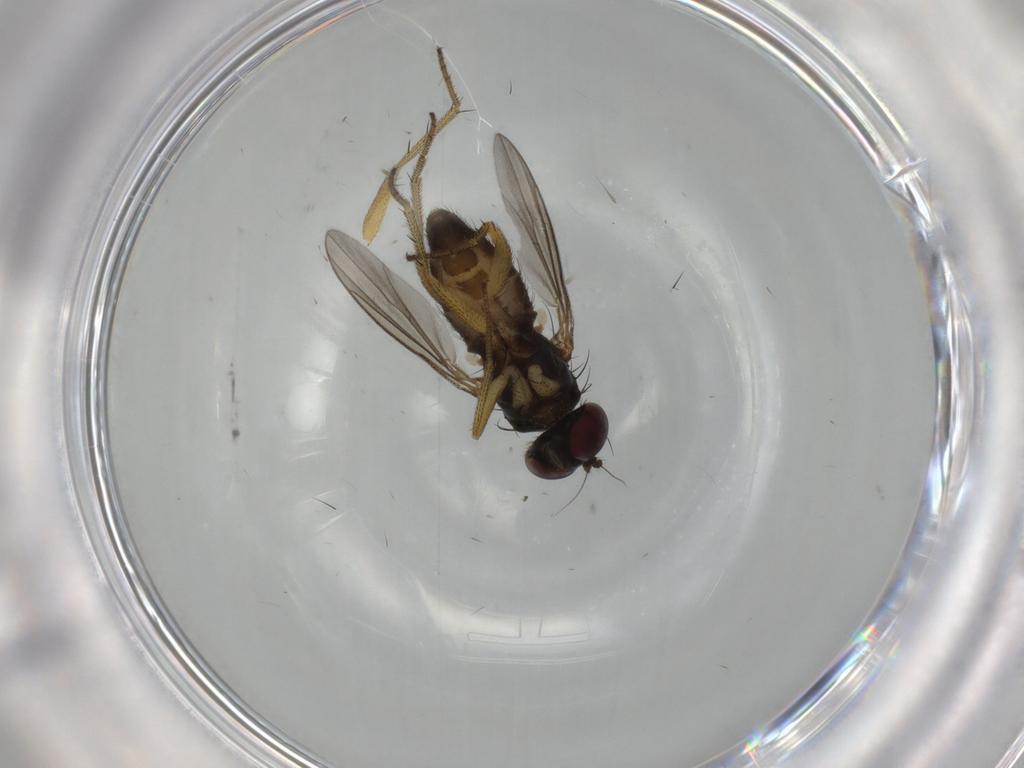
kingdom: Animalia
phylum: Arthropoda
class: Insecta
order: Diptera
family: Dolichopodidae
